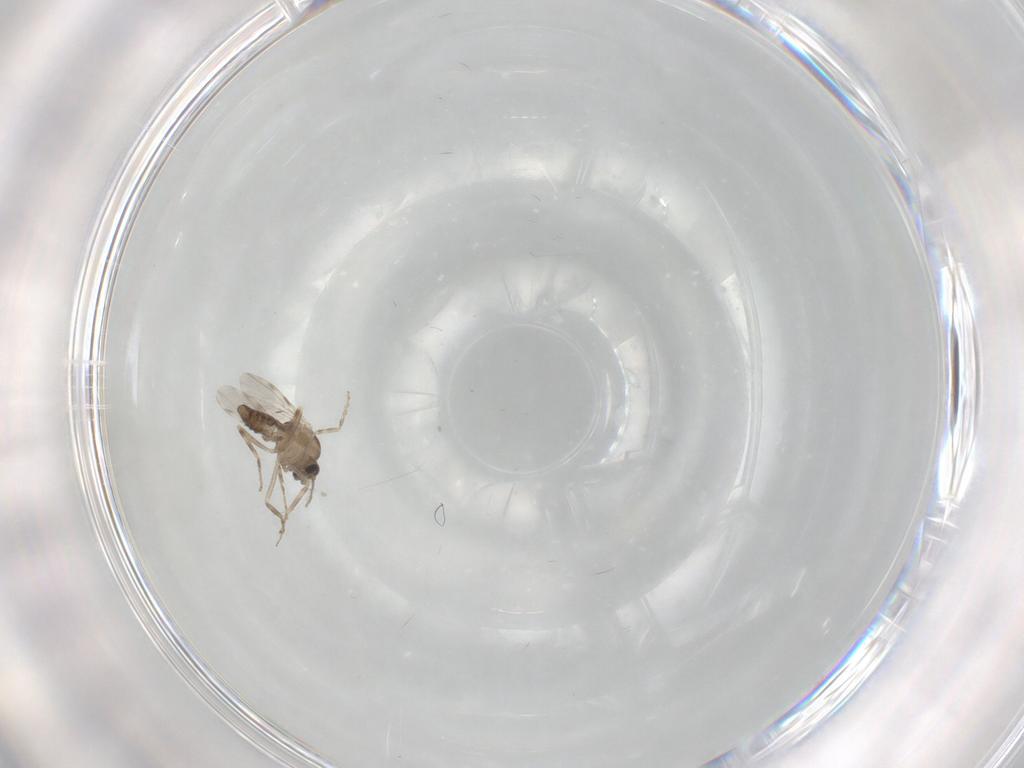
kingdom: Animalia
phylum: Arthropoda
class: Insecta
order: Diptera
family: Ceratopogonidae
